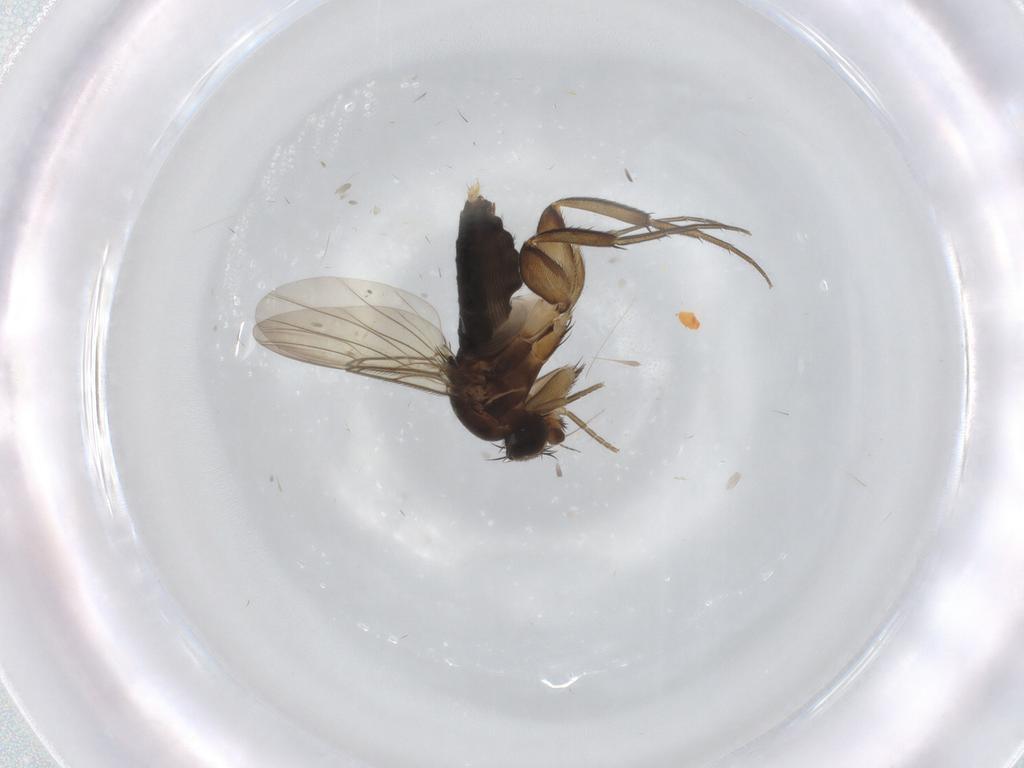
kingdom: Animalia
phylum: Arthropoda
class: Insecta
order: Diptera
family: Phoridae
